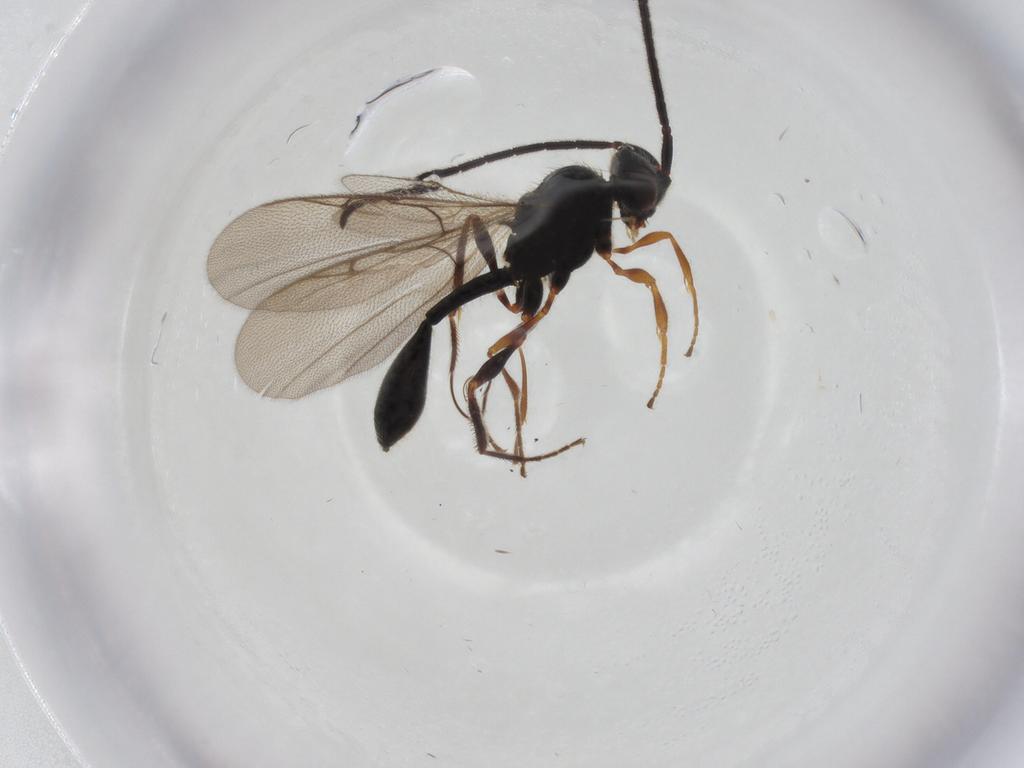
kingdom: Animalia
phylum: Arthropoda
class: Insecta
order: Hymenoptera
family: Diapriidae
